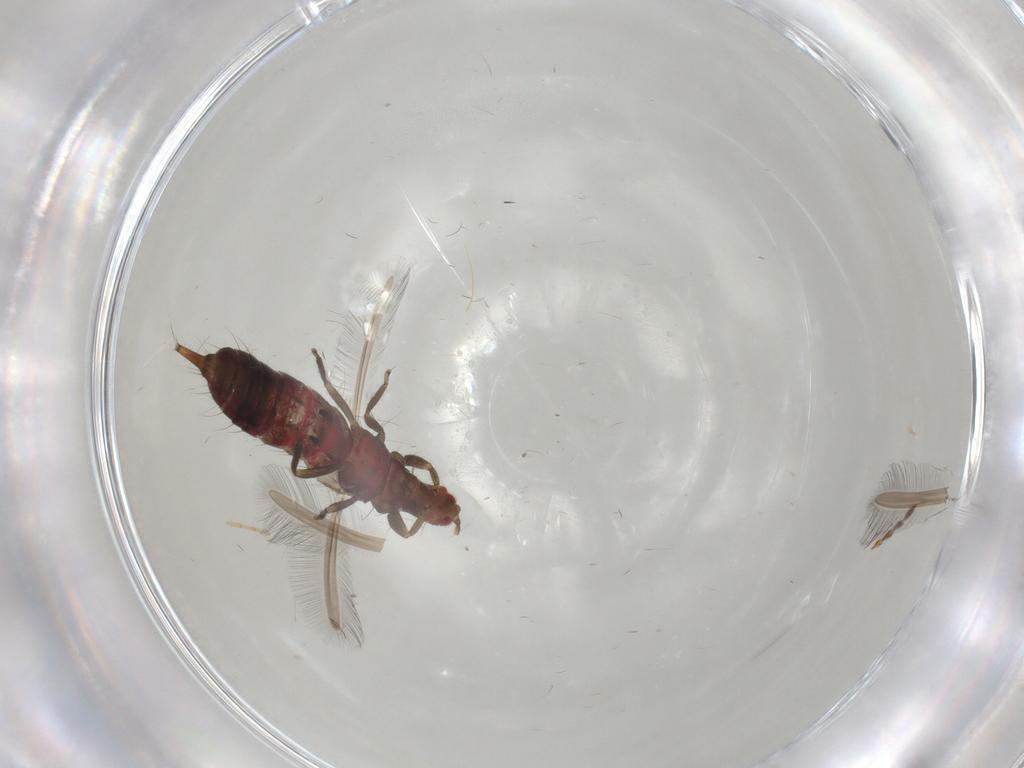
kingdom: Animalia
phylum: Arthropoda
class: Insecta
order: Thysanoptera
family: Phlaeothripidae
